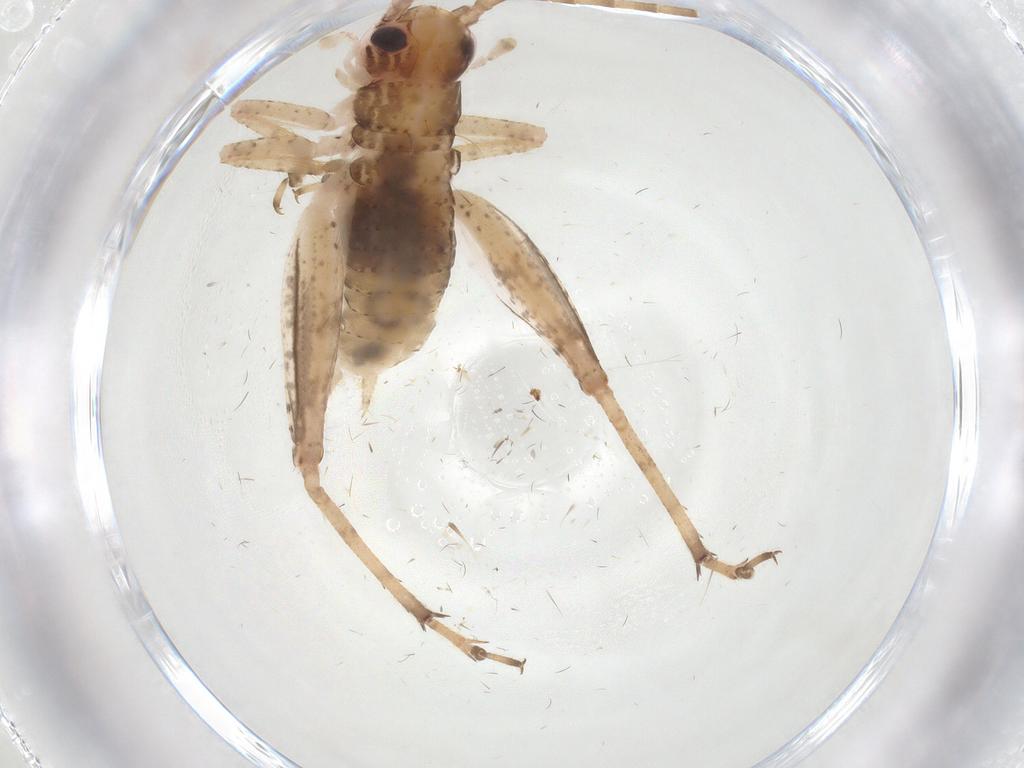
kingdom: Animalia
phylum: Arthropoda
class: Insecta
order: Orthoptera
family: Gryllidae
